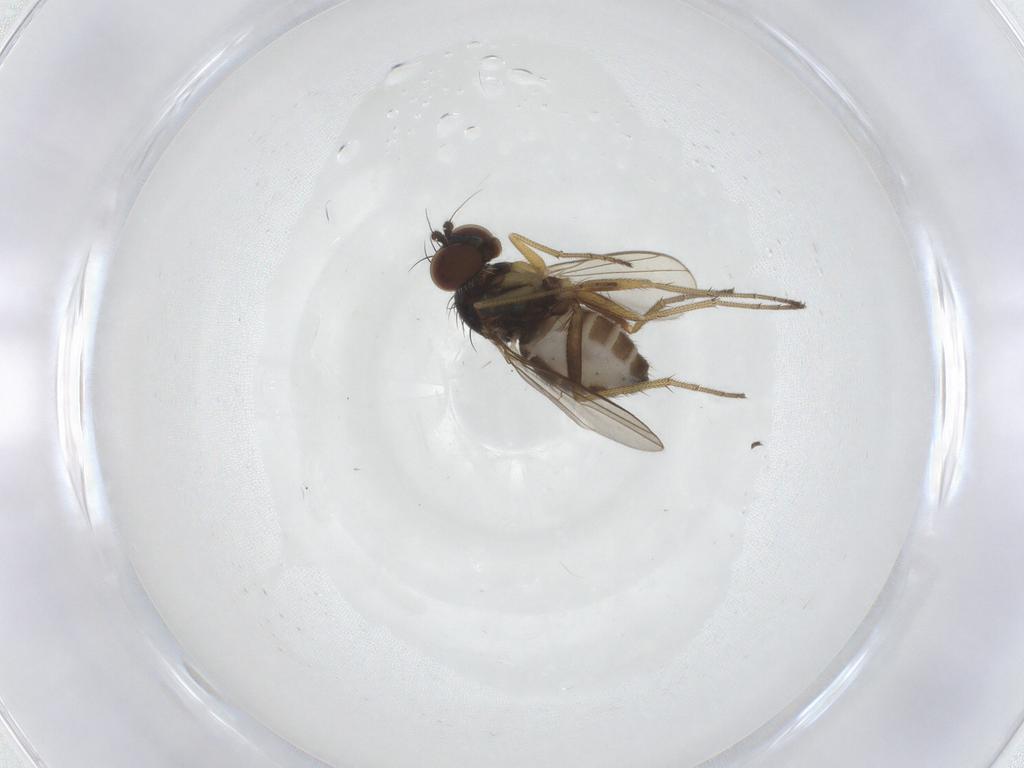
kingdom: Animalia
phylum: Arthropoda
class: Insecta
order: Diptera
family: Dolichopodidae
